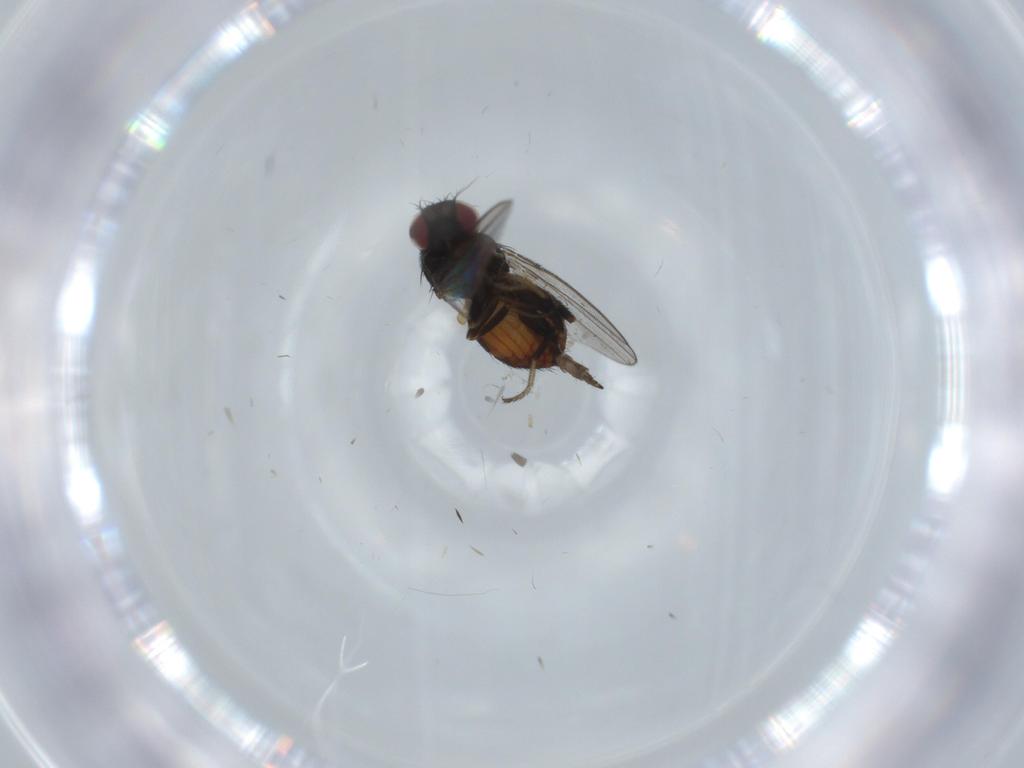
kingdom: Animalia
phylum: Arthropoda
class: Insecta
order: Diptera
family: Milichiidae
